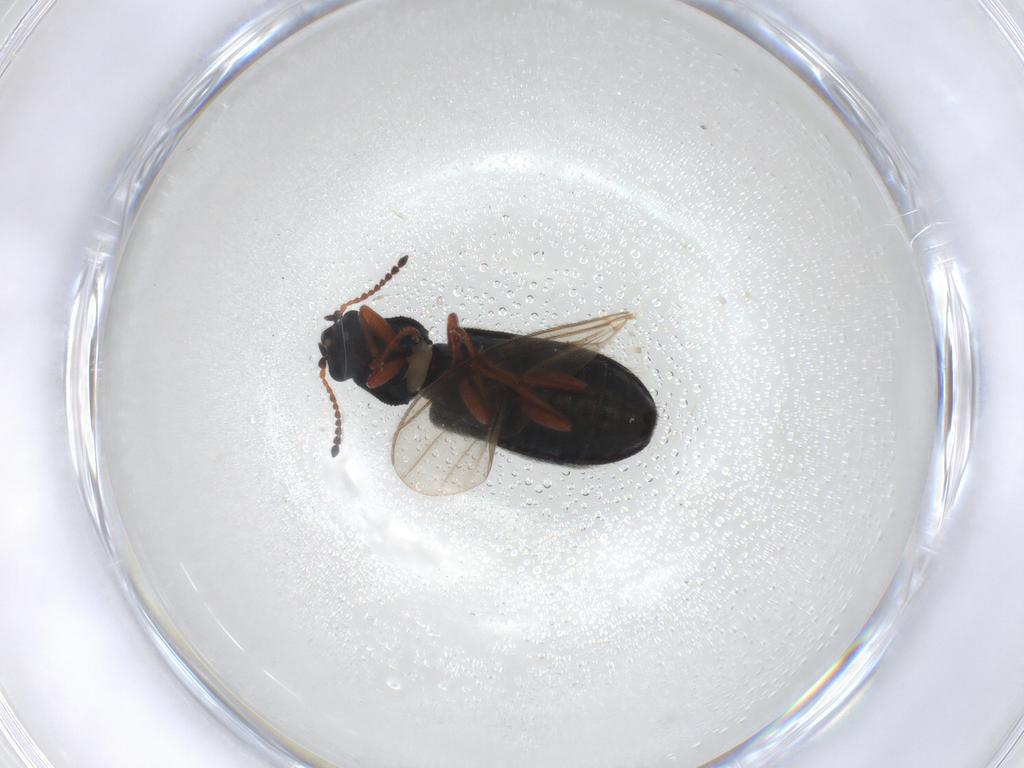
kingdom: Animalia
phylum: Arthropoda
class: Insecta
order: Coleoptera
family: Melyridae
